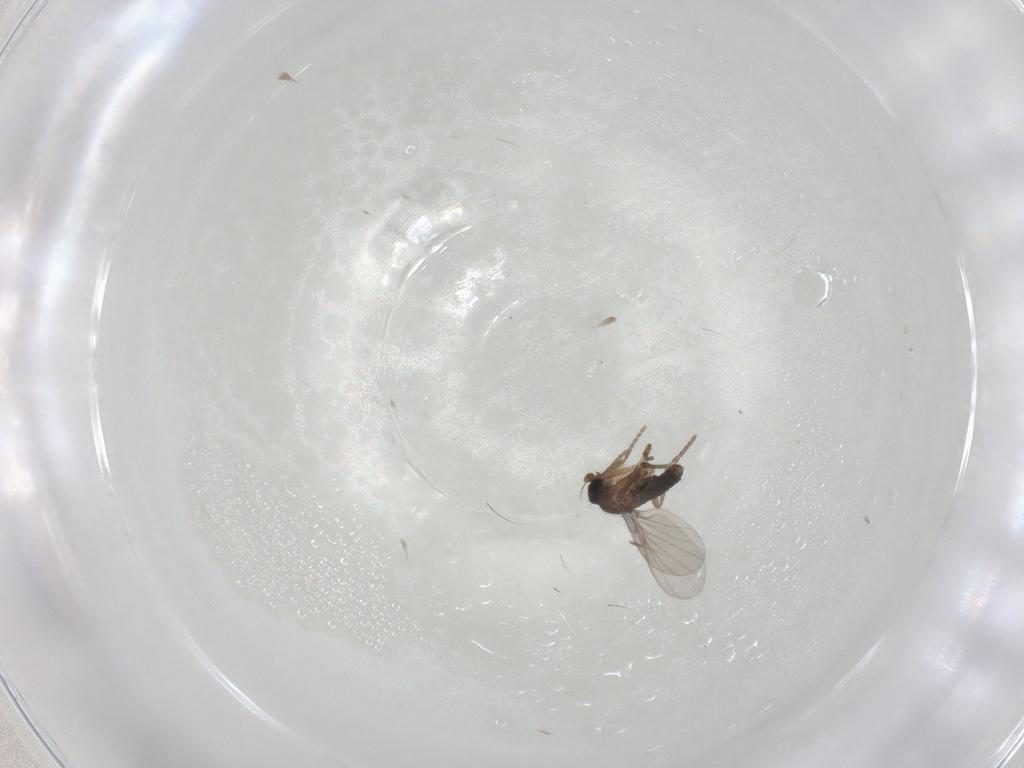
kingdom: Animalia
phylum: Arthropoda
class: Insecta
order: Diptera
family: Phoridae
